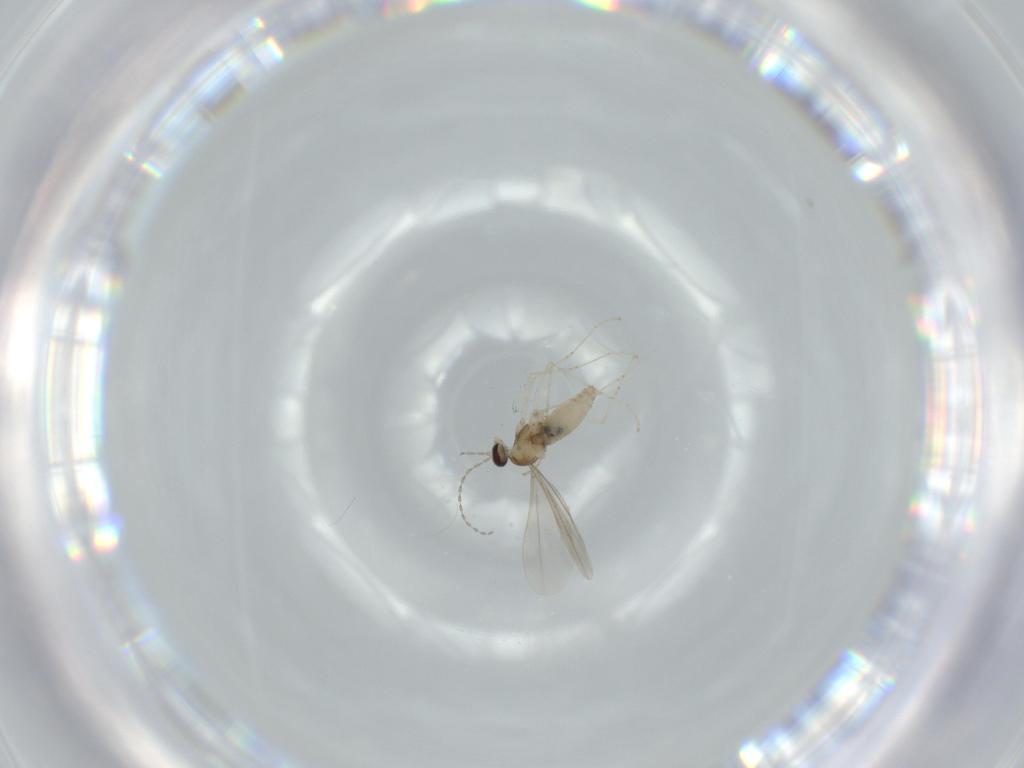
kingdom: Animalia
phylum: Arthropoda
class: Insecta
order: Diptera
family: Cecidomyiidae
